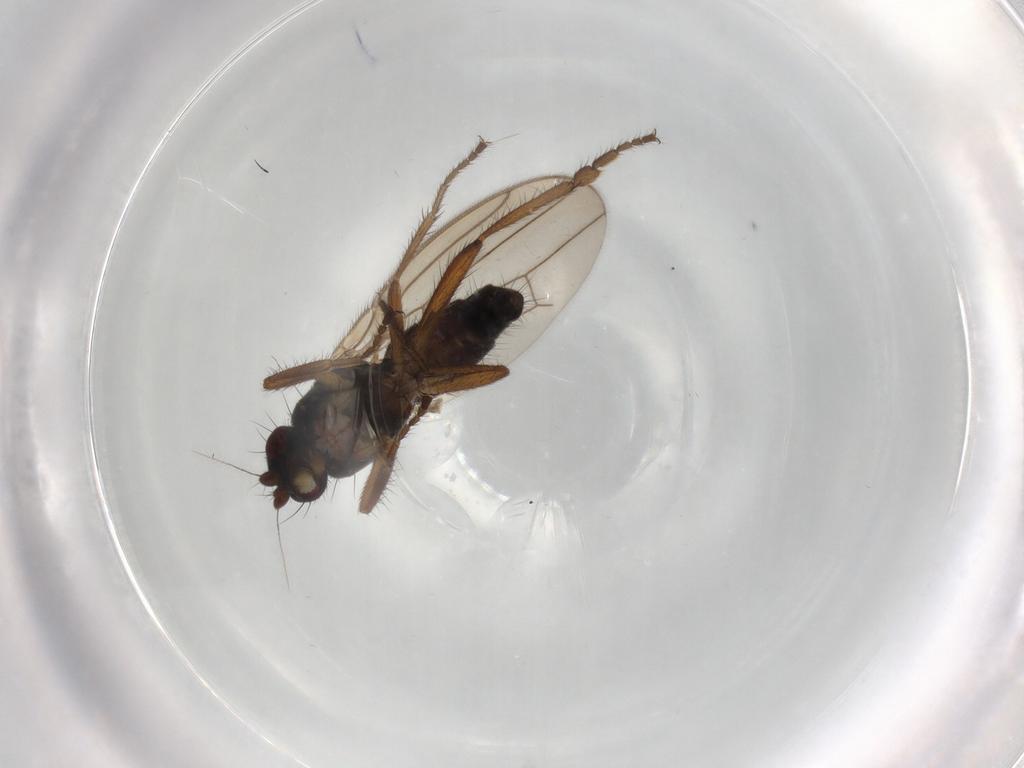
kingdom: Animalia
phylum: Arthropoda
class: Insecta
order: Diptera
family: Sphaeroceridae
